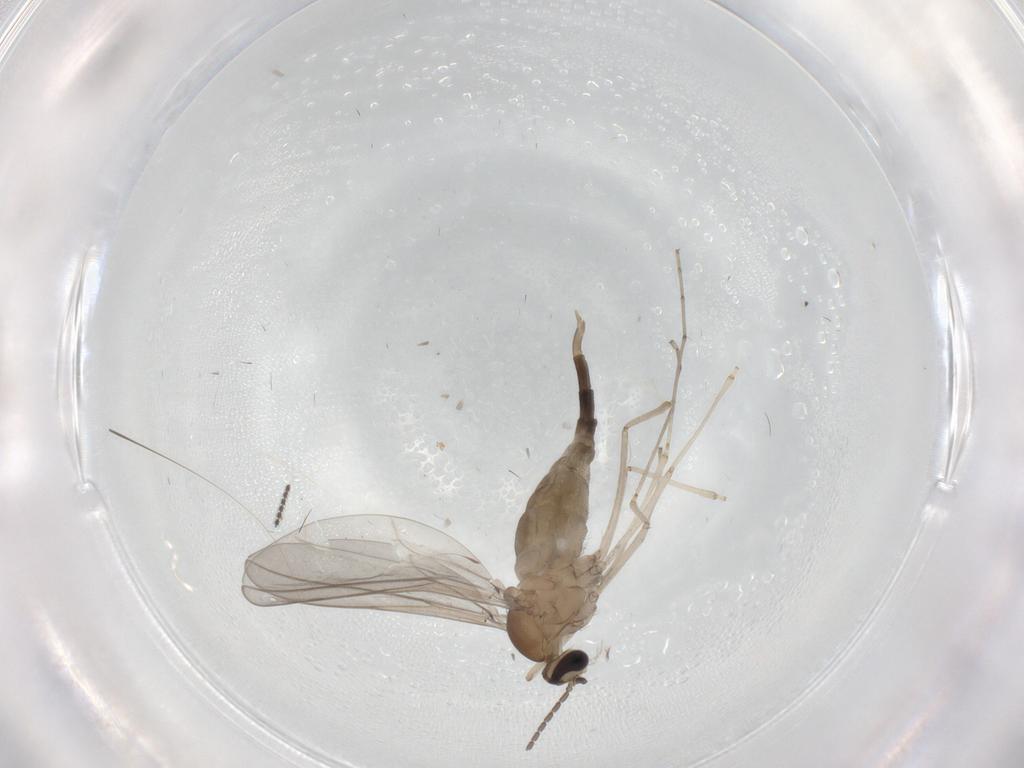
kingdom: Animalia
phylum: Arthropoda
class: Insecta
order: Diptera
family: Cecidomyiidae
